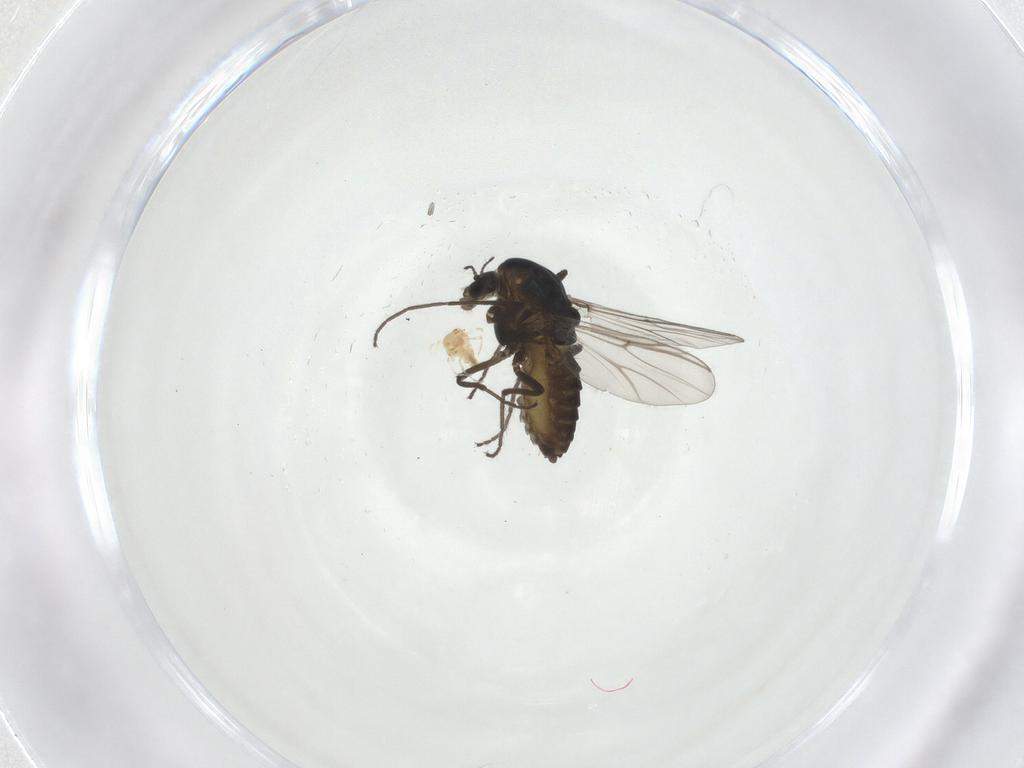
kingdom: Animalia
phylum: Arthropoda
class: Insecta
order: Diptera
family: Chironomidae
